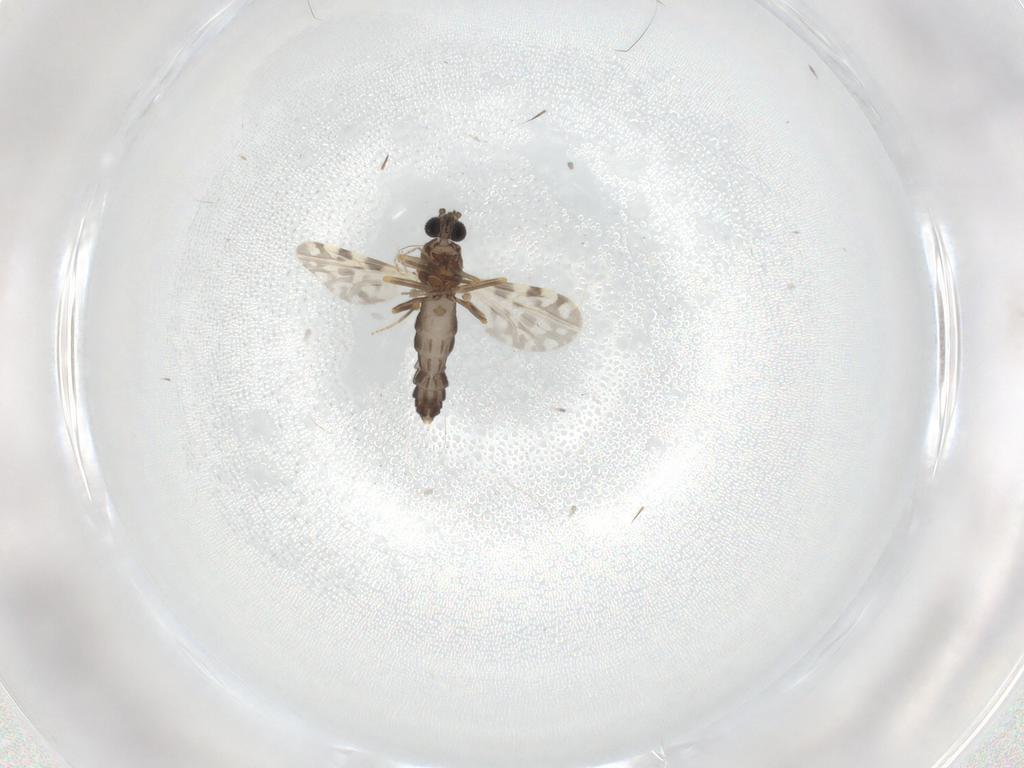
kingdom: Animalia
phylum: Arthropoda
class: Insecta
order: Diptera
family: Ceratopogonidae
